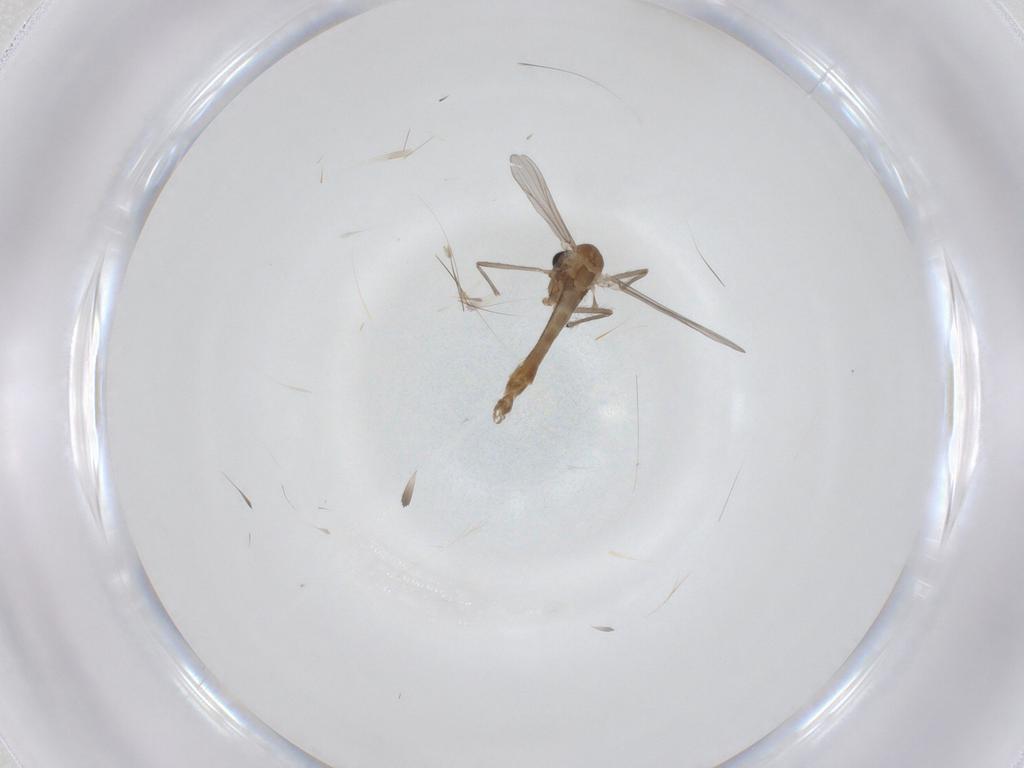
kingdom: Animalia
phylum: Arthropoda
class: Insecta
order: Diptera
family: Chironomidae
